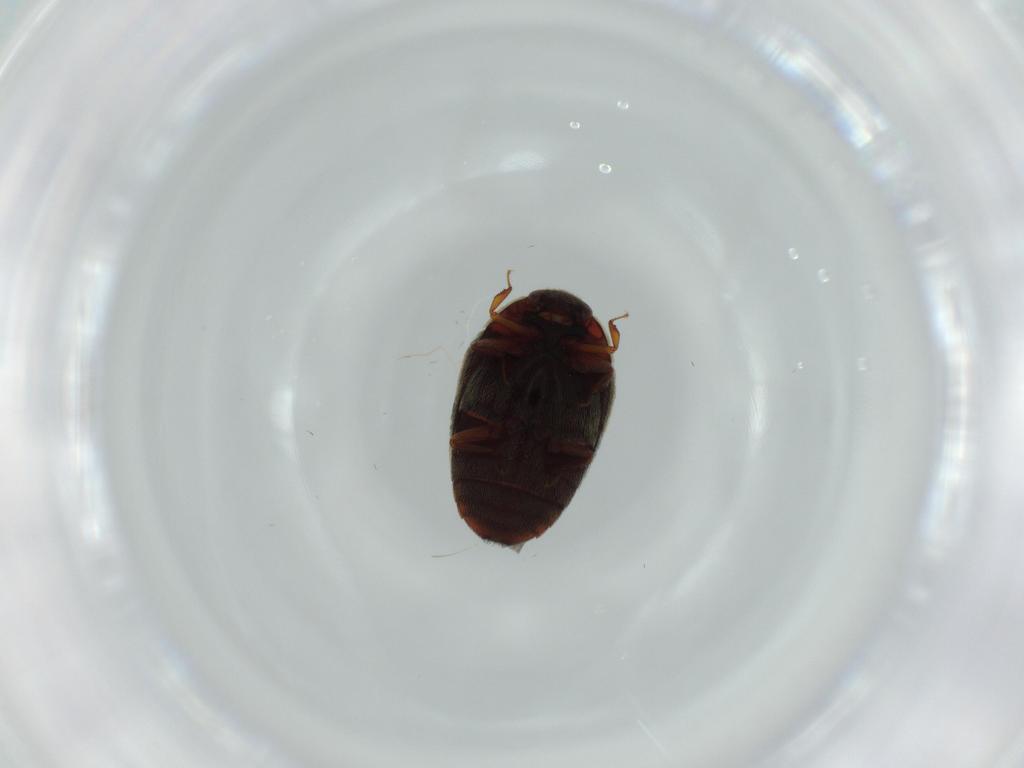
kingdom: Animalia
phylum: Arthropoda
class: Insecta
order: Coleoptera
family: Dermestidae
